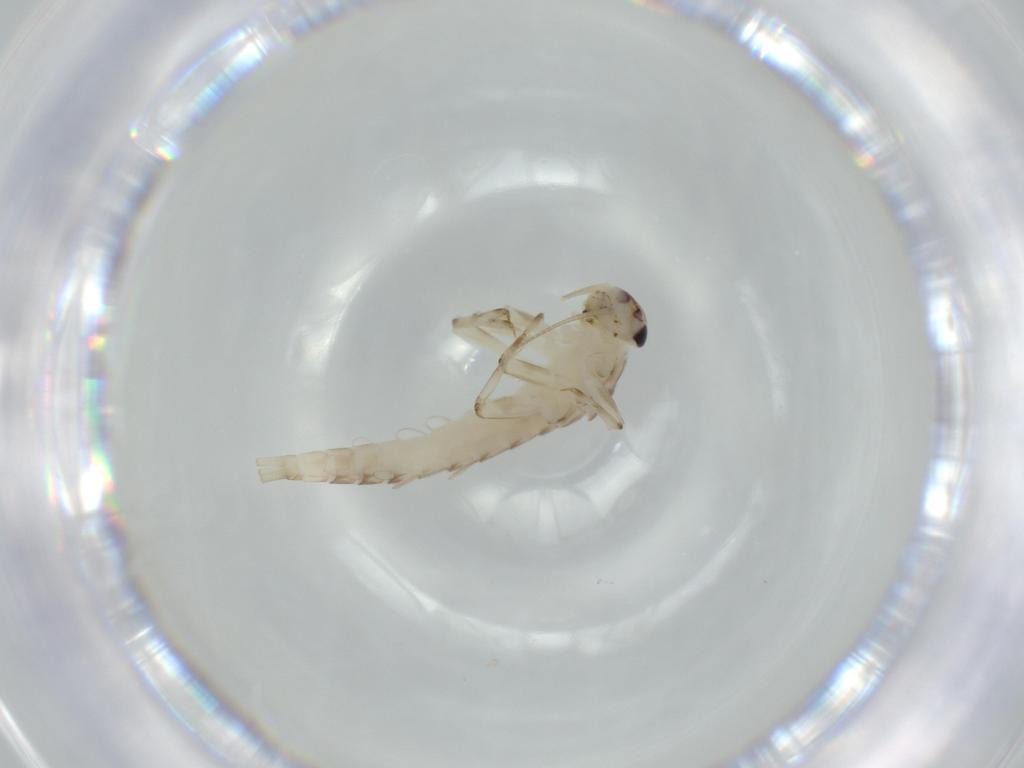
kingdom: Animalia
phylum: Arthropoda
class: Insecta
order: Ephemeroptera
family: Baetidae
